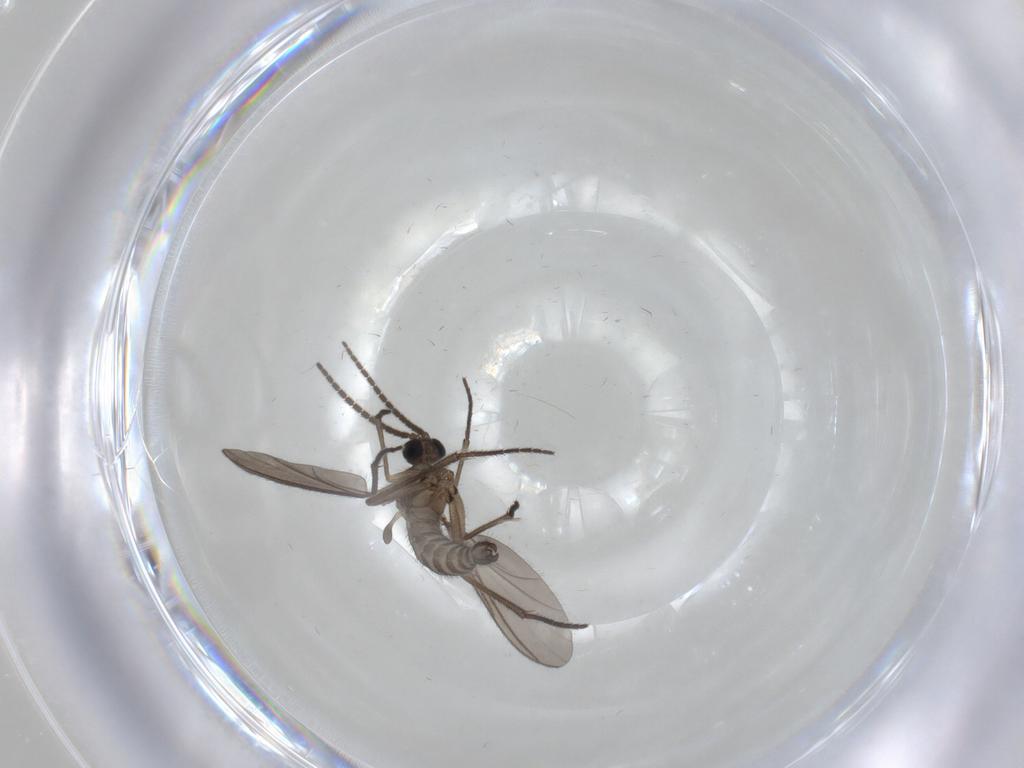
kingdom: Animalia
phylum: Arthropoda
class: Insecta
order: Diptera
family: Sciaridae
